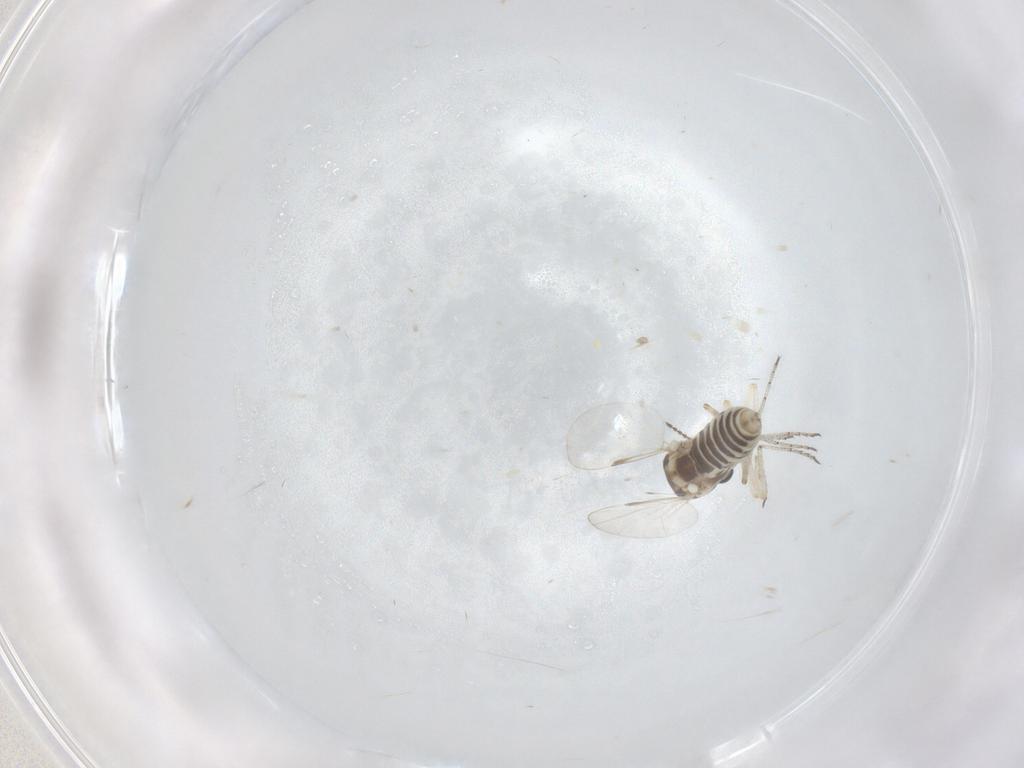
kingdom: Animalia
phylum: Arthropoda
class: Insecta
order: Diptera
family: Ceratopogonidae
